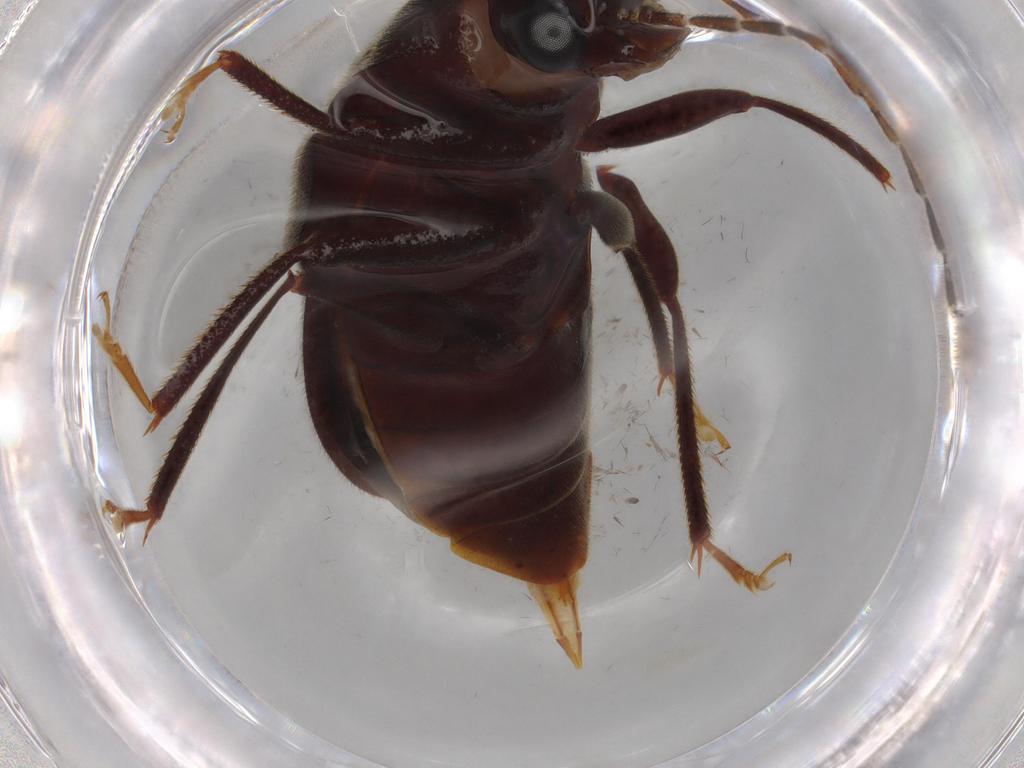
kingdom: Animalia
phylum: Arthropoda
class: Insecta
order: Coleoptera
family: Ptilodactylidae
